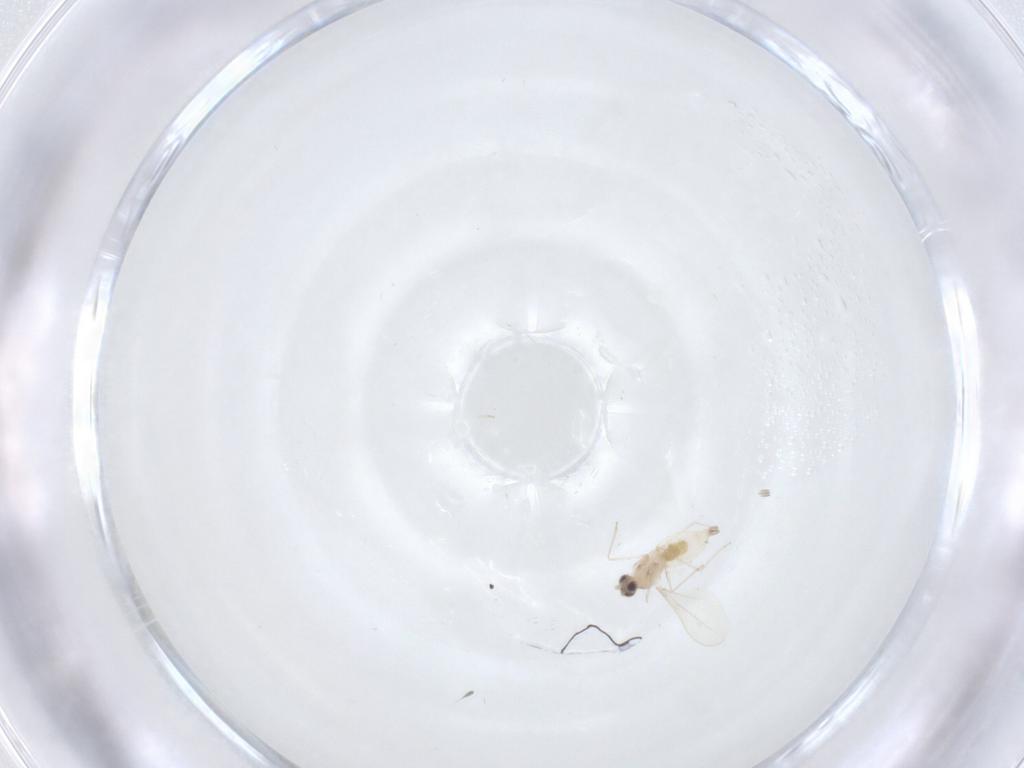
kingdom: Animalia
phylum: Arthropoda
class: Insecta
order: Diptera
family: Cecidomyiidae
